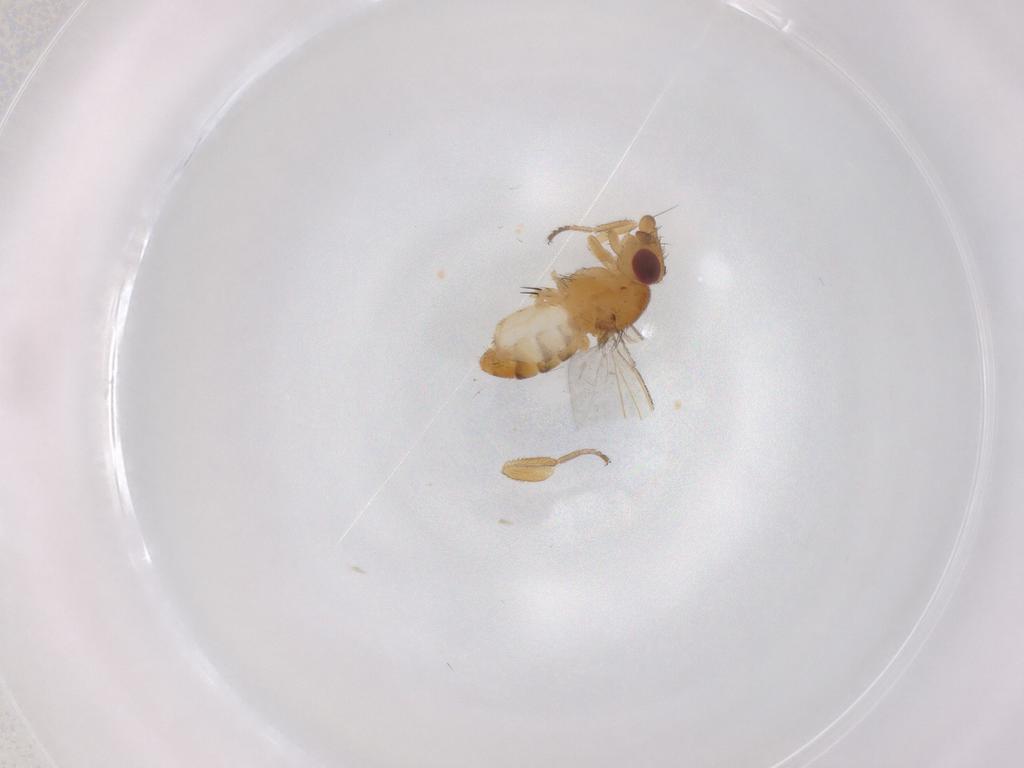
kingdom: Animalia
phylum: Arthropoda
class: Insecta
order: Diptera
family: Milichiidae
